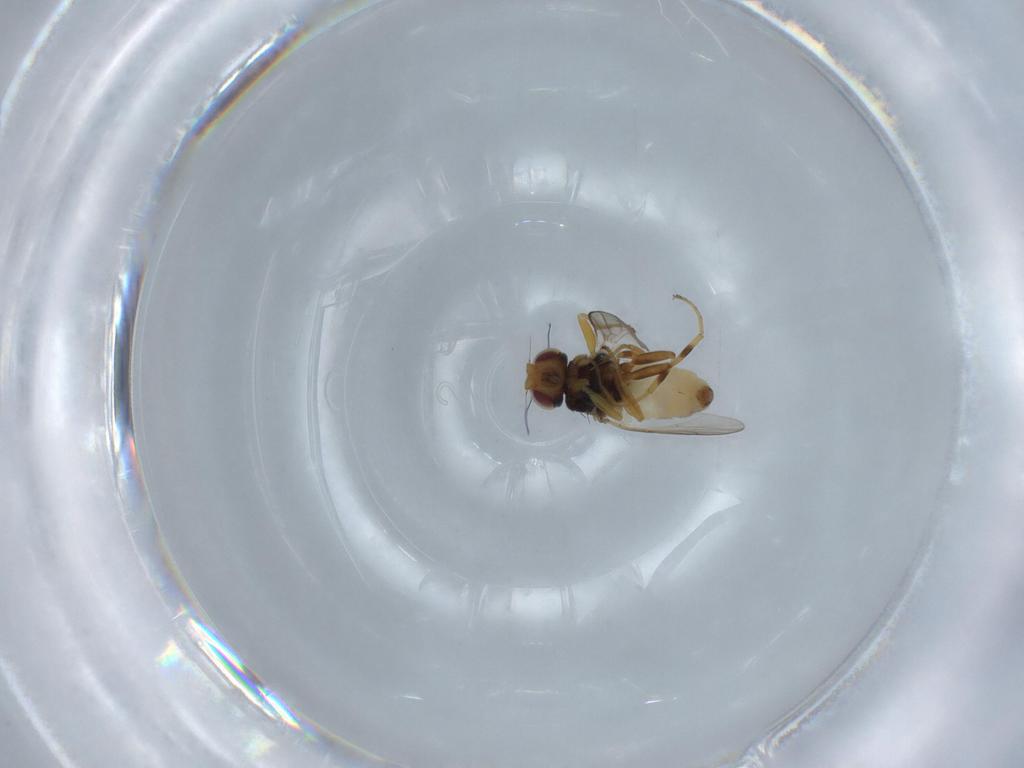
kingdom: Animalia
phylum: Arthropoda
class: Insecta
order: Diptera
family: Chloropidae
